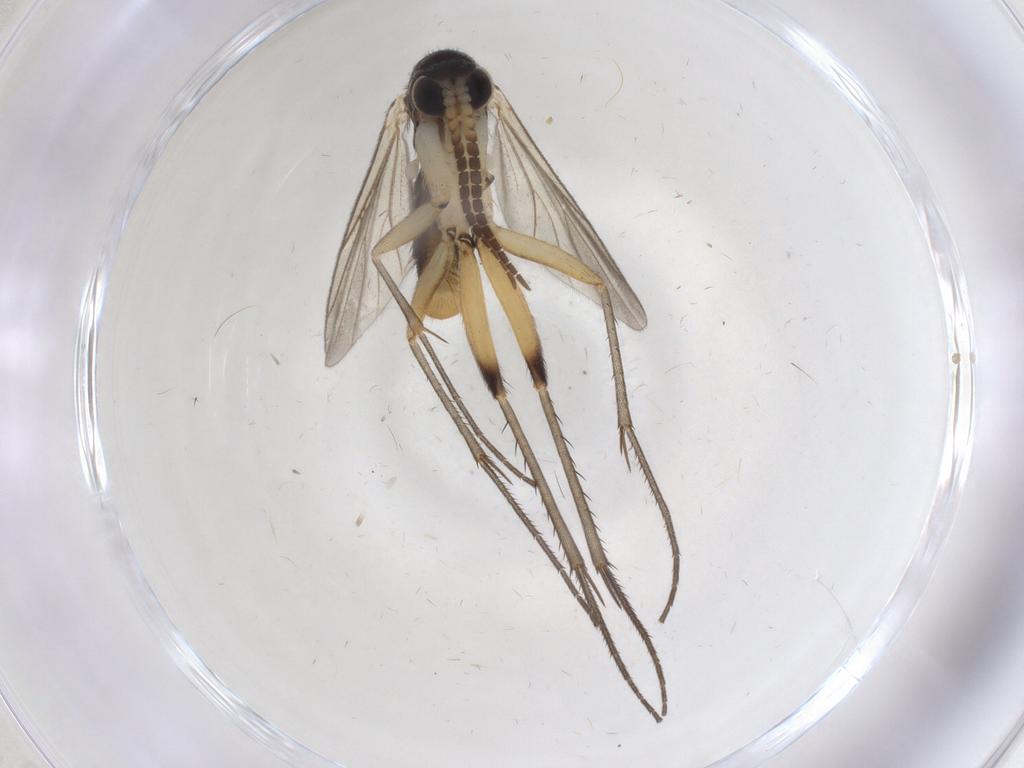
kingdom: Animalia
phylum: Arthropoda
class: Insecta
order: Diptera
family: Mycetophilidae
